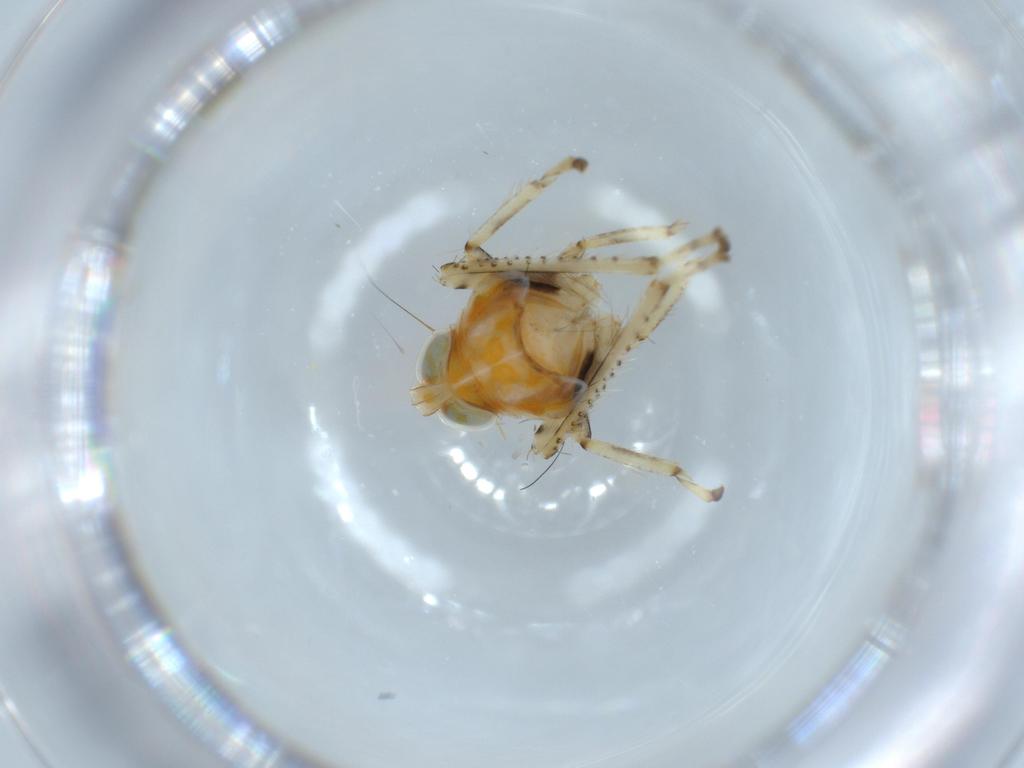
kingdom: Animalia
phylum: Arthropoda
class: Insecta
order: Hemiptera
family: Cicadellidae
